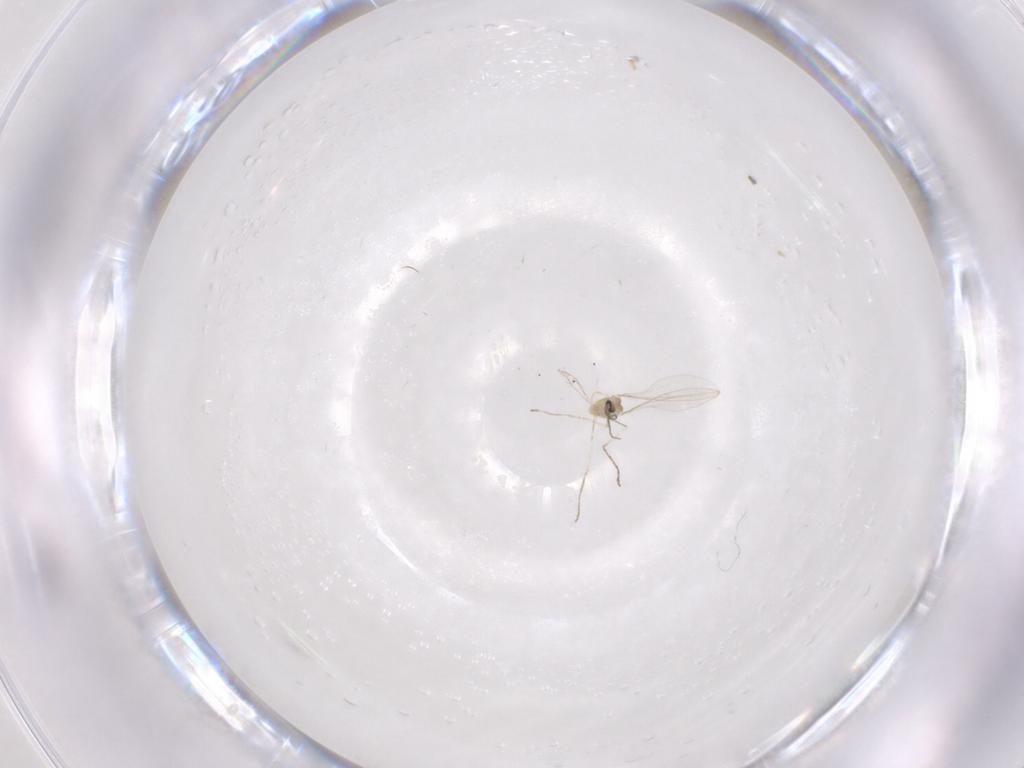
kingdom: Animalia
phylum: Arthropoda
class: Insecta
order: Diptera
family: Cecidomyiidae
